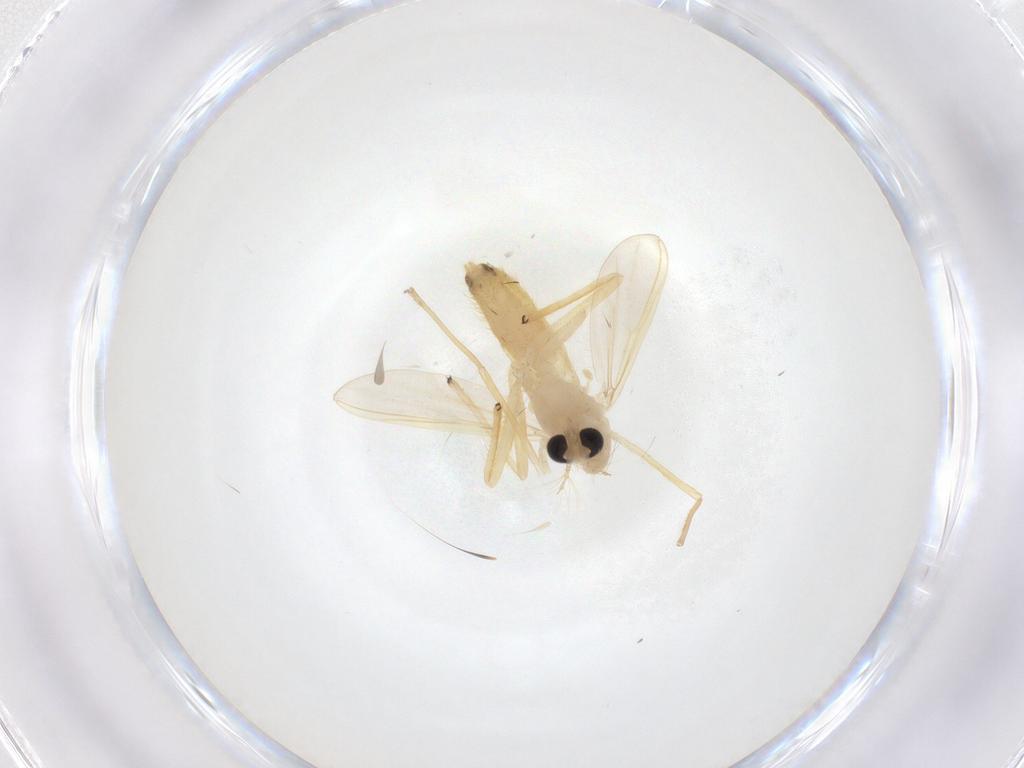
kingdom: Animalia
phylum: Arthropoda
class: Insecta
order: Diptera
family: Chironomidae
